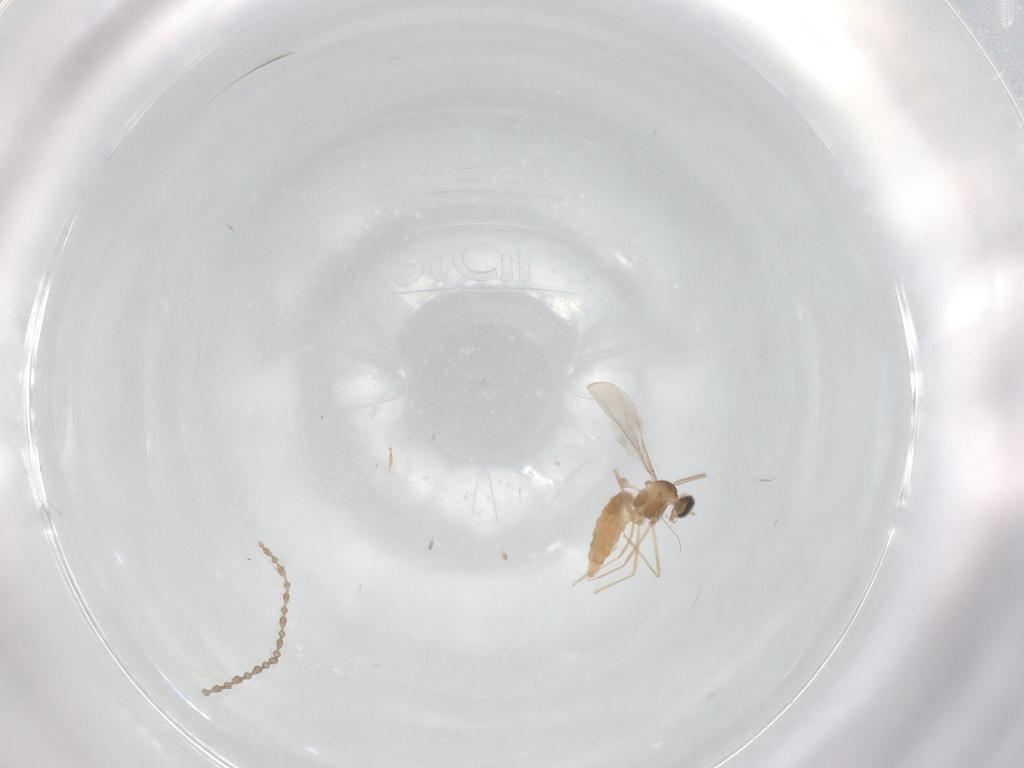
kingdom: Animalia
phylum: Arthropoda
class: Insecta
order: Diptera
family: Cecidomyiidae
